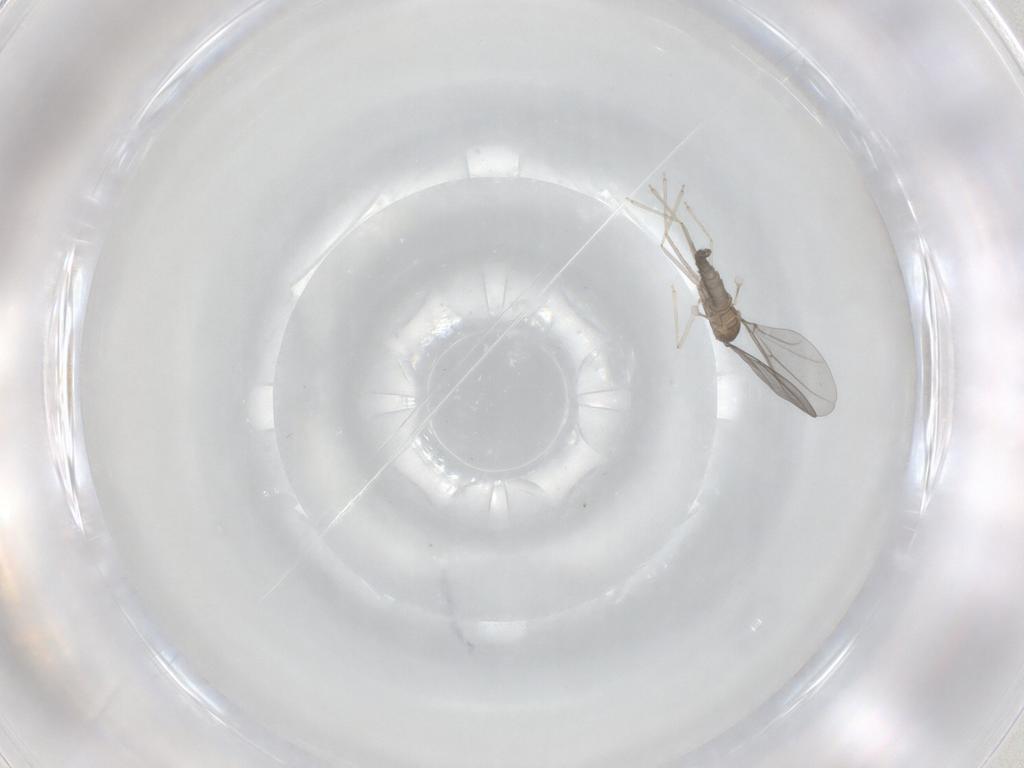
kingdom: Animalia
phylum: Arthropoda
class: Insecta
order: Diptera
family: Cecidomyiidae
